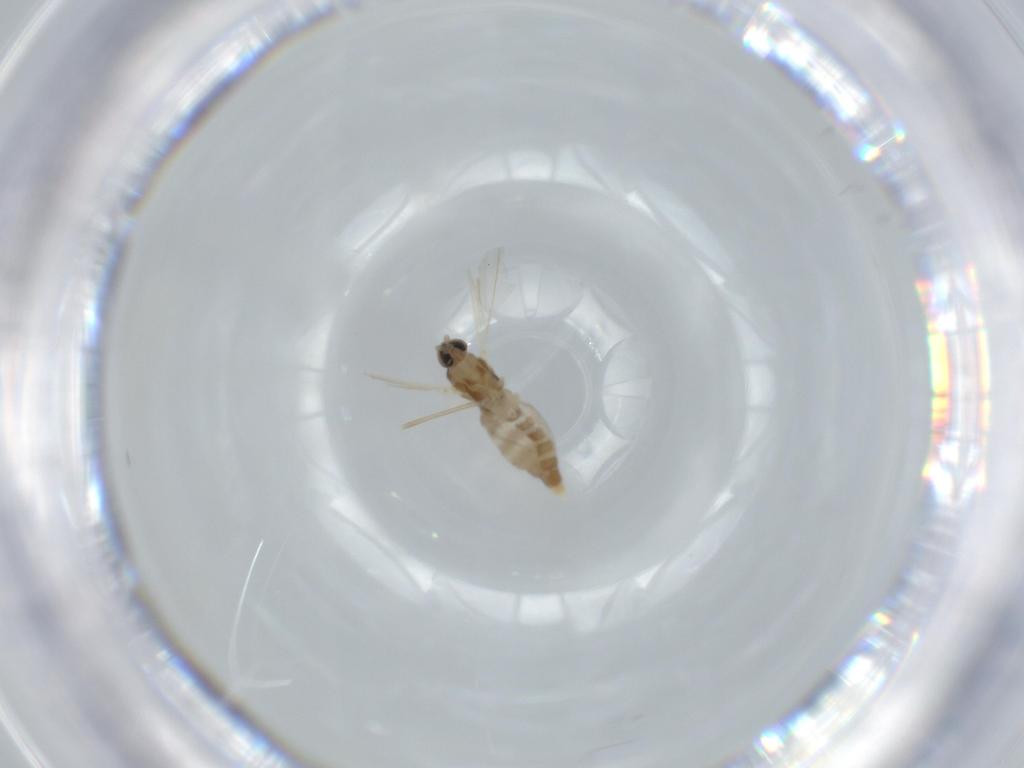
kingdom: Animalia
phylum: Arthropoda
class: Insecta
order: Diptera
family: Cecidomyiidae
